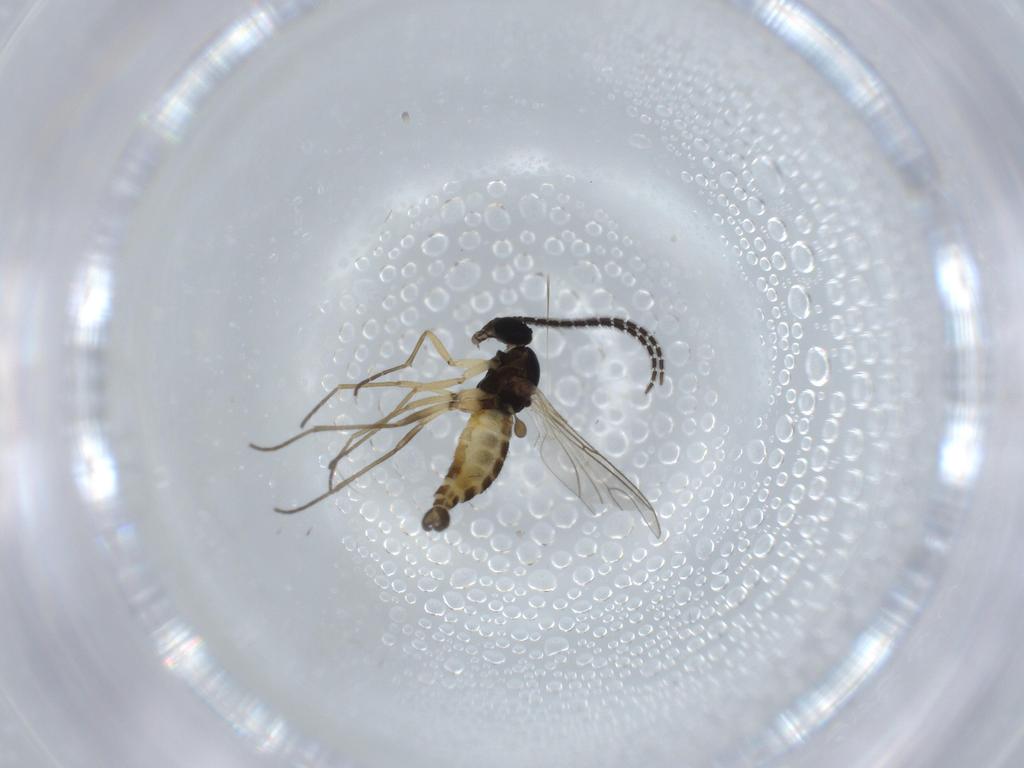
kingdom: Animalia
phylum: Arthropoda
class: Insecta
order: Diptera
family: Sciaridae
